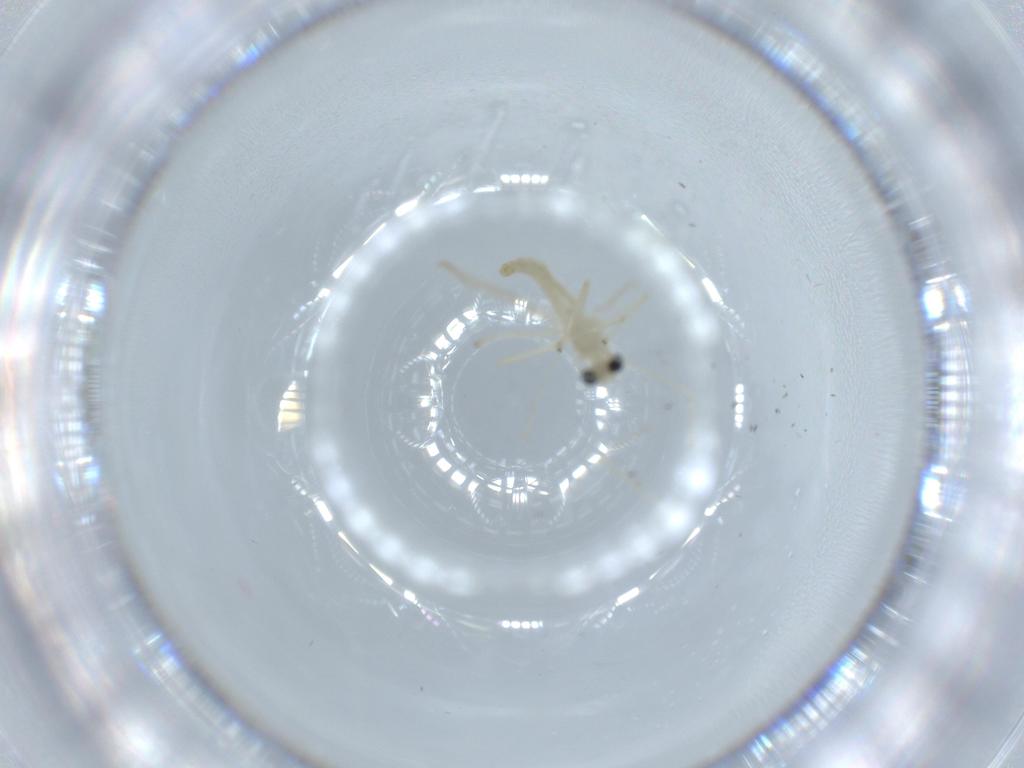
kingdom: Animalia
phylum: Arthropoda
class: Insecta
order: Diptera
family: Chironomidae
